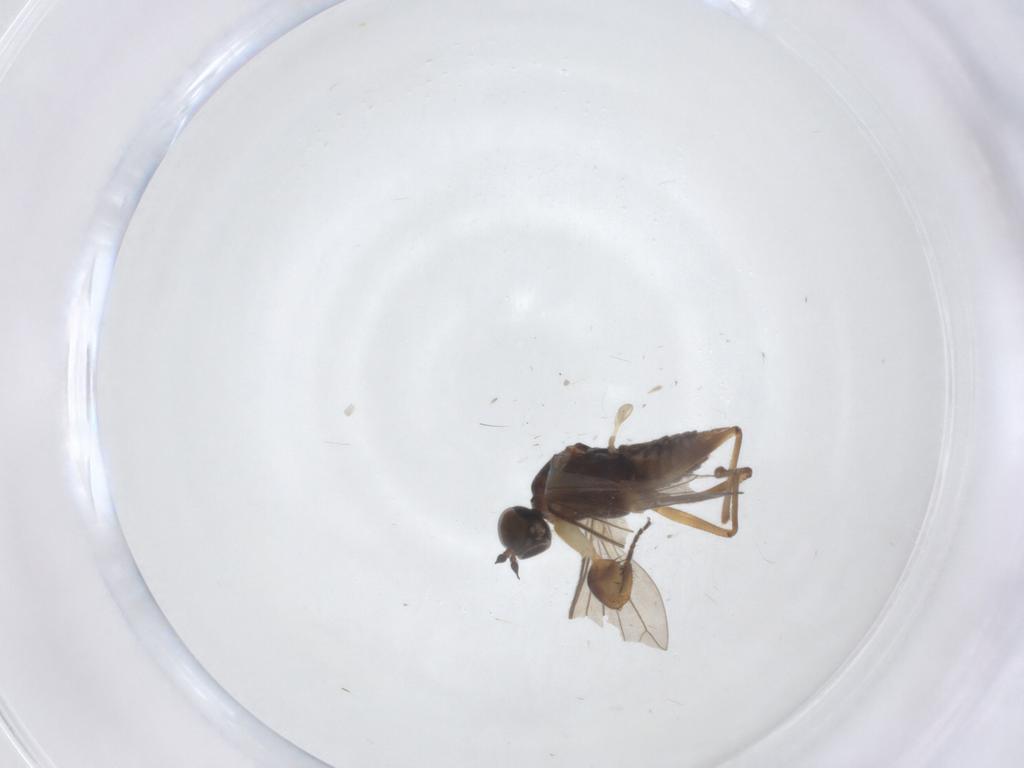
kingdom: Animalia
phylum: Arthropoda
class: Insecta
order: Diptera
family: Empididae
